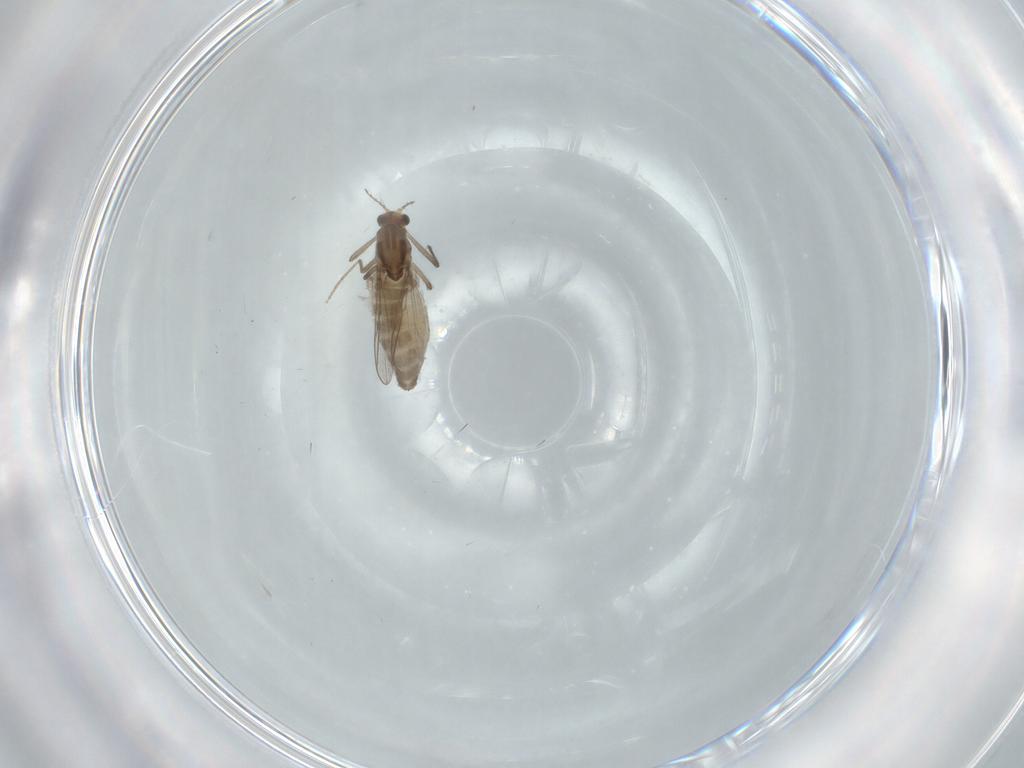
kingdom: Animalia
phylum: Arthropoda
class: Insecta
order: Diptera
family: Chironomidae
